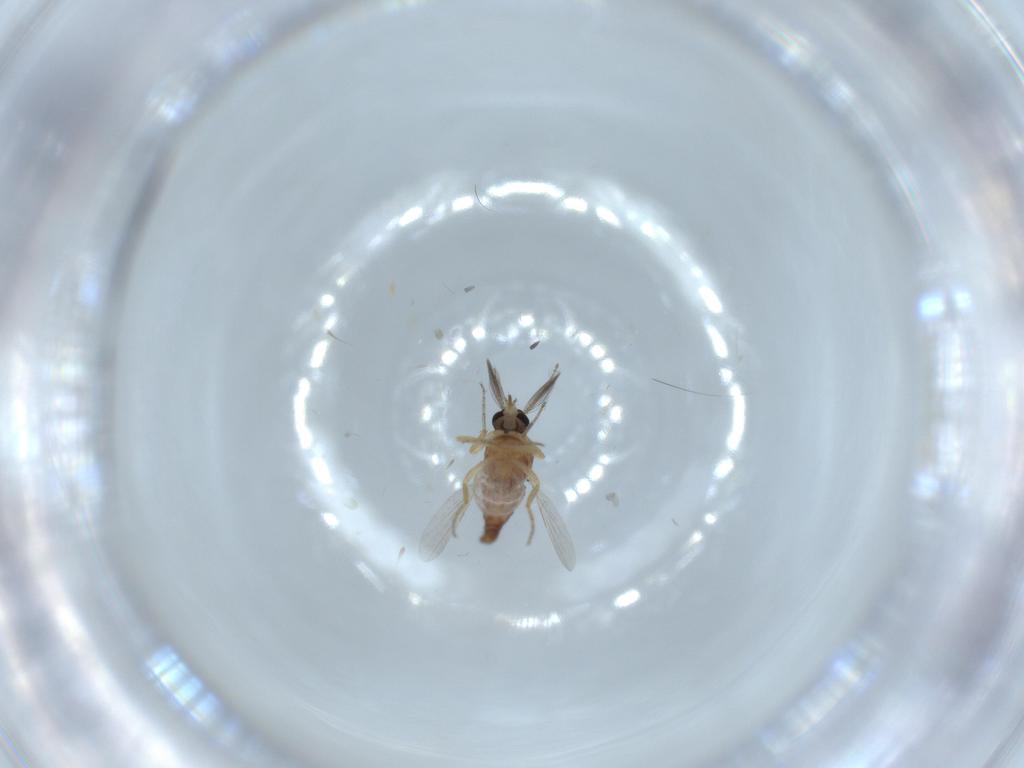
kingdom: Animalia
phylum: Arthropoda
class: Insecta
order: Diptera
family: Ceratopogonidae
